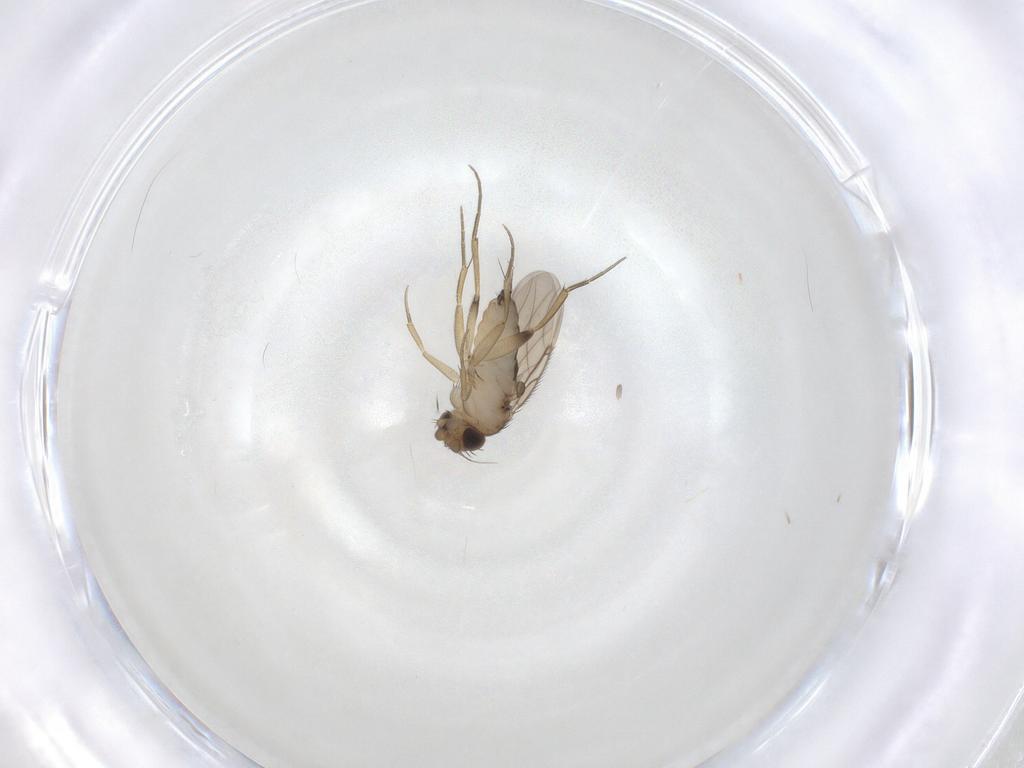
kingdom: Animalia
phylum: Arthropoda
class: Insecta
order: Diptera
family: Phoridae
